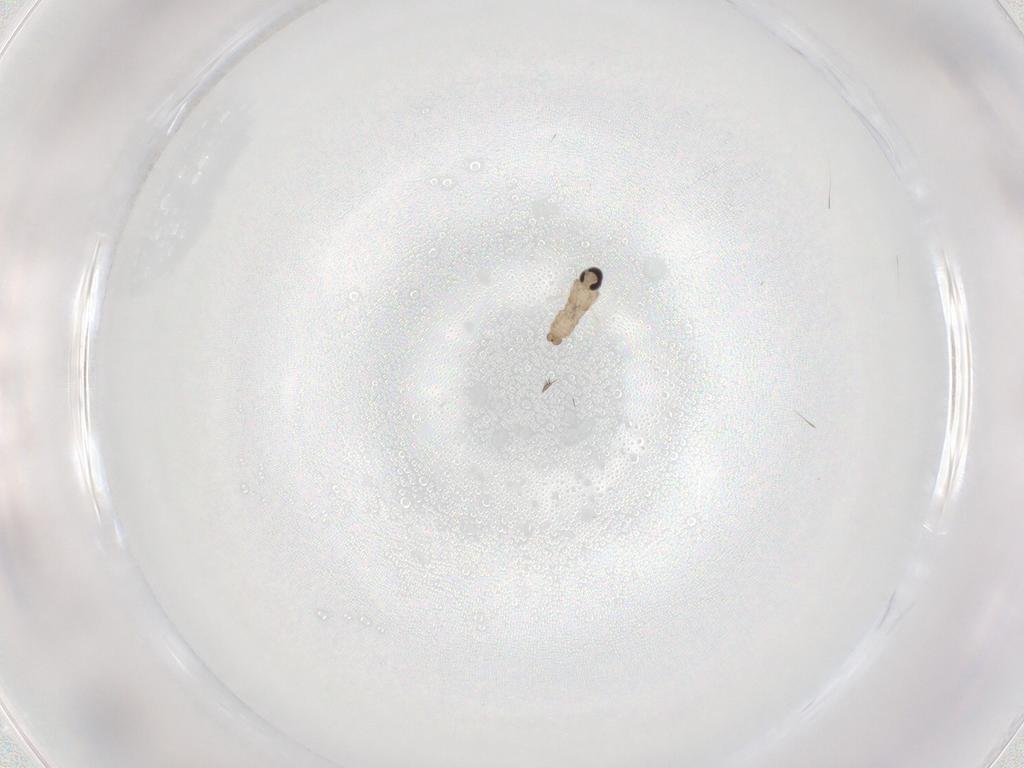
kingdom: Animalia
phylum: Arthropoda
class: Insecta
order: Diptera
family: Cecidomyiidae
